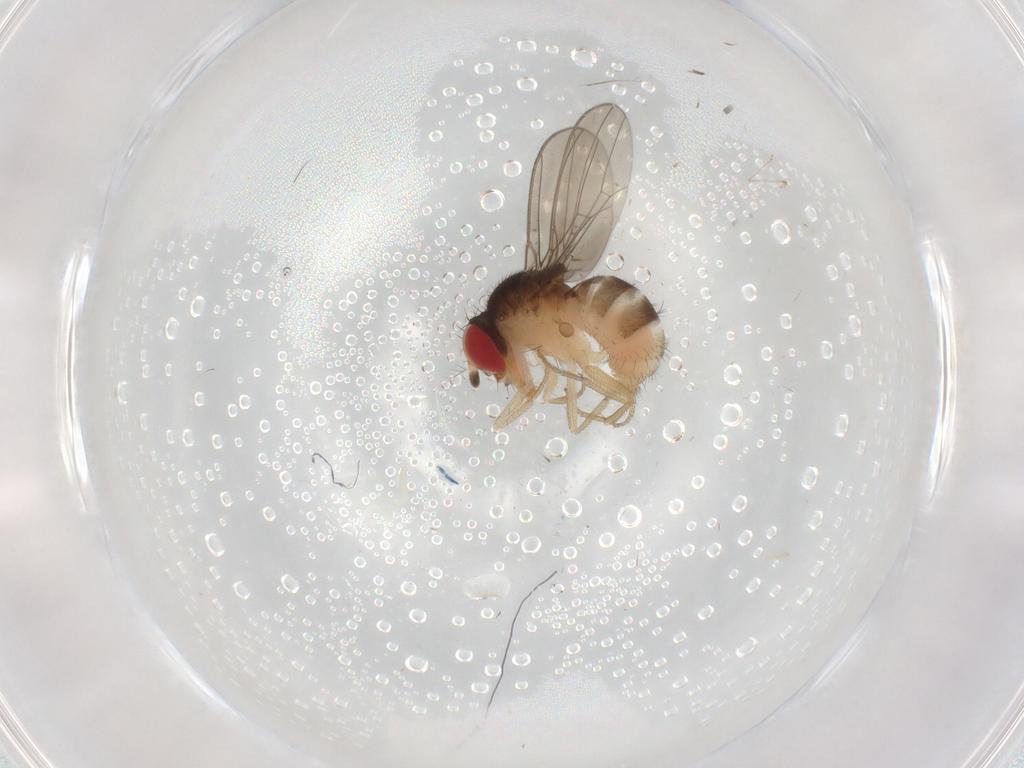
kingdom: Animalia
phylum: Arthropoda
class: Insecta
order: Diptera
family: Drosophilidae
